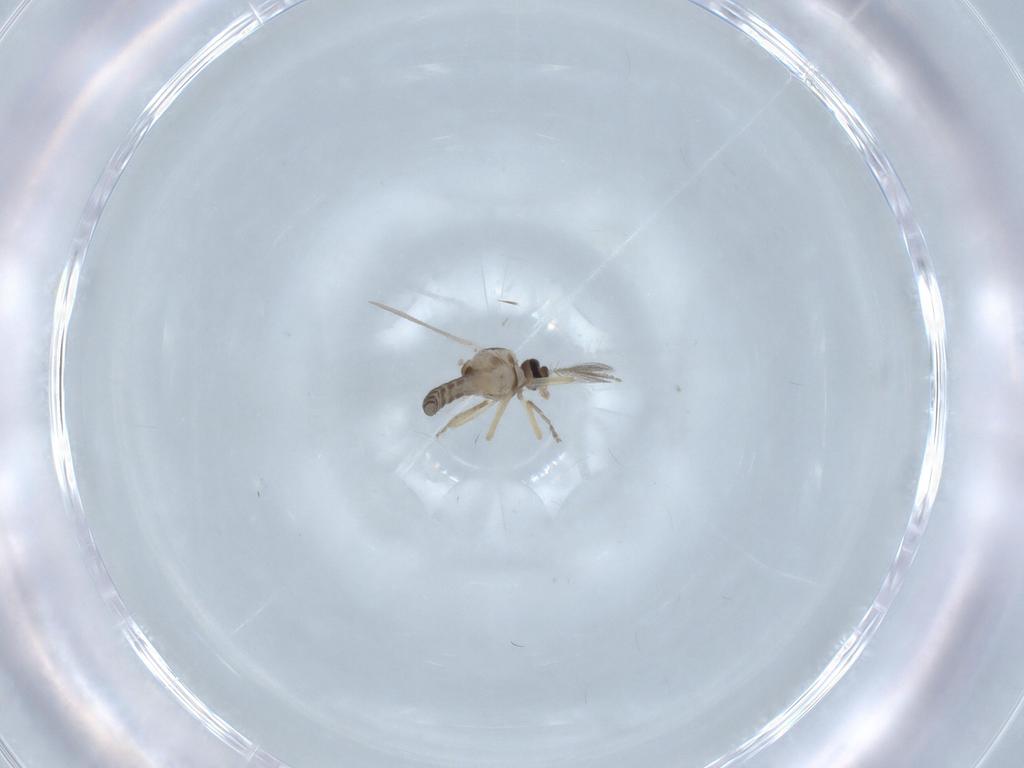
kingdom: Animalia
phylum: Arthropoda
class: Insecta
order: Diptera
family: Ceratopogonidae
